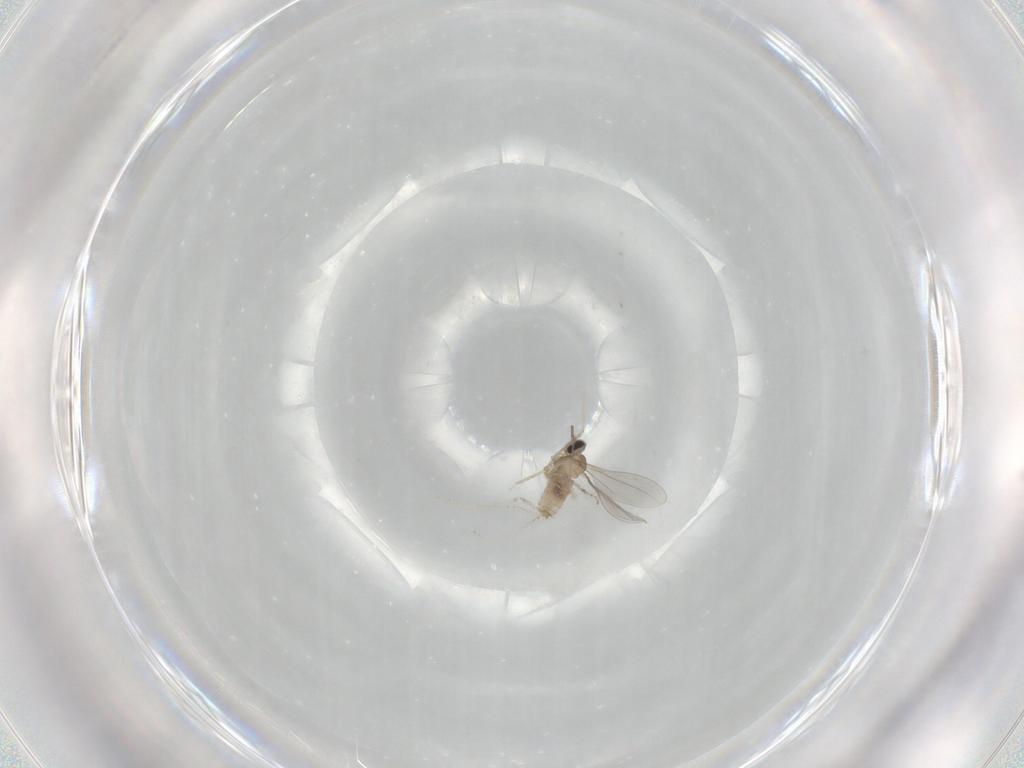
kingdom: Animalia
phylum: Arthropoda
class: Insecta
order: Diptera
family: Cecidomyiidae
